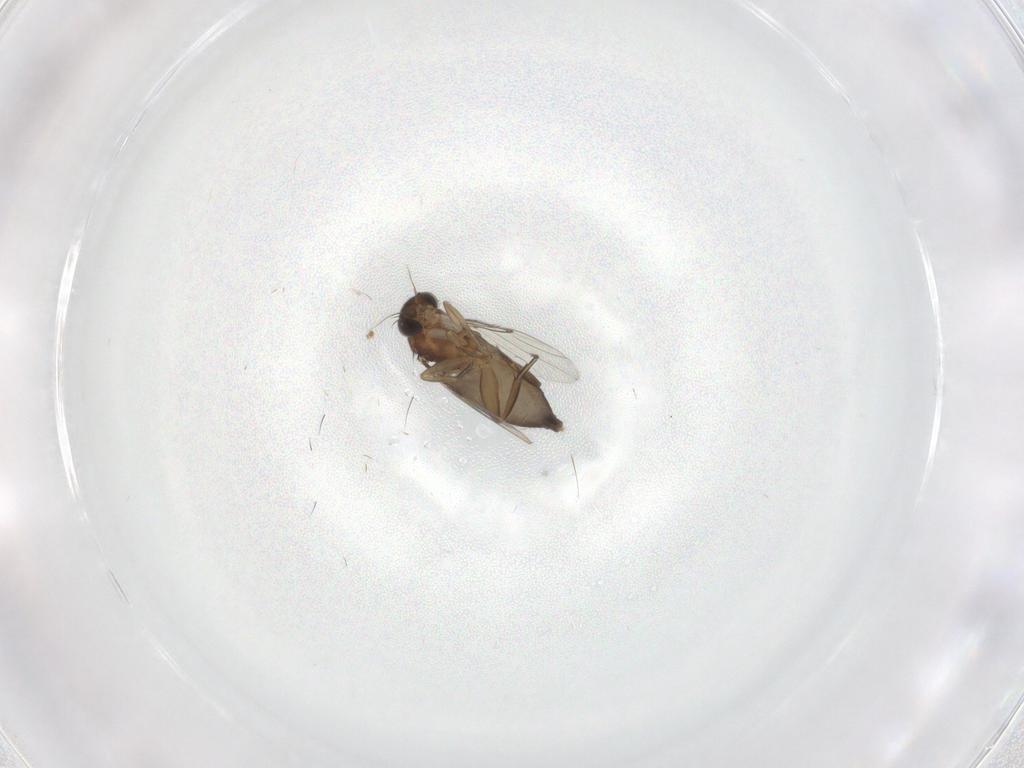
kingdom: Animalia
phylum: Arthropoda
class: Insecta
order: Diptera
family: Phoridae
